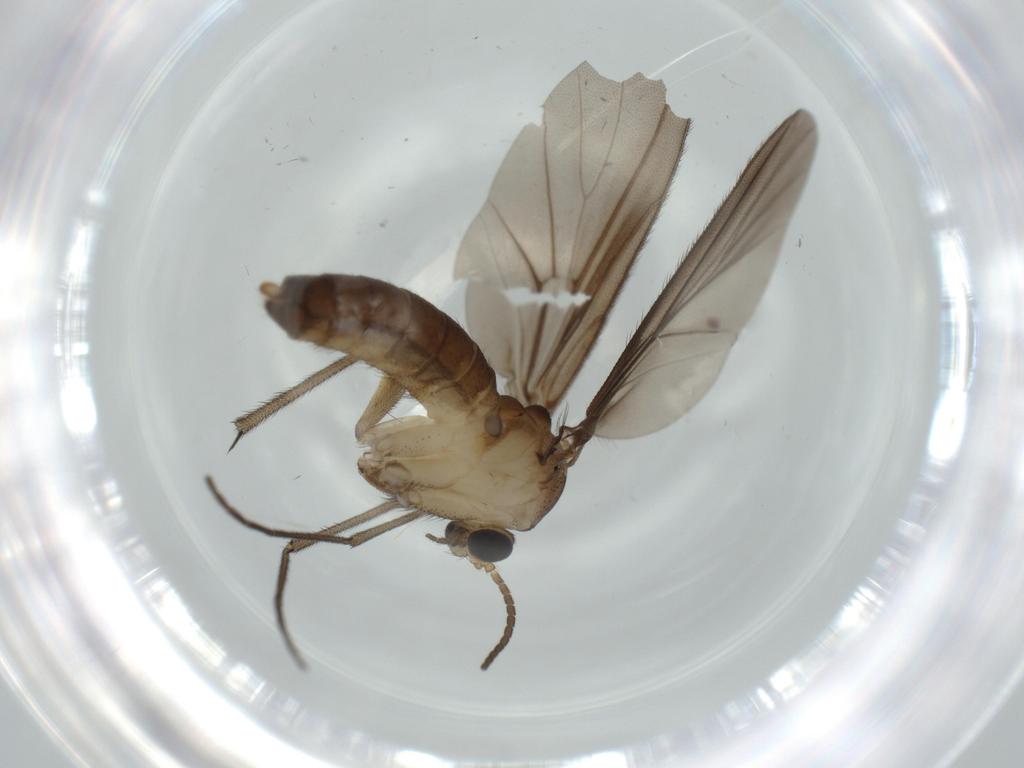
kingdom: Animalia
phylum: Arthropoda
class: Insecta
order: Diptera
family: Diadocidiidae
